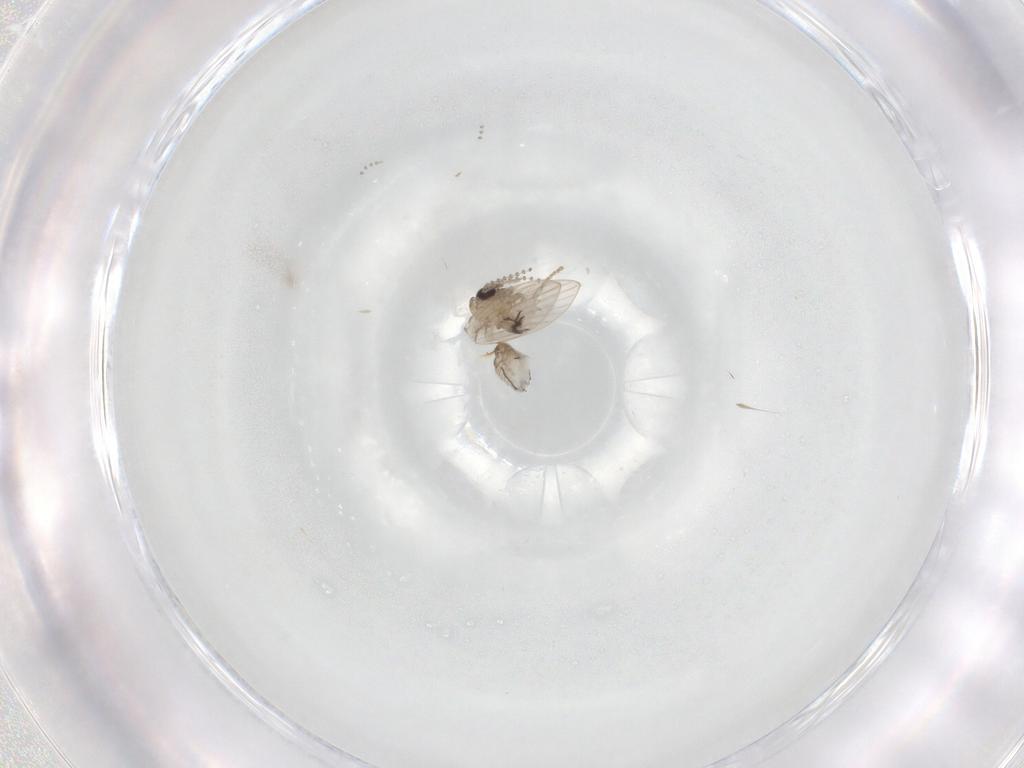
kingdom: Animalia
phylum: Arthropoda
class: Insecta
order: Diptera
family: Psychodidae
